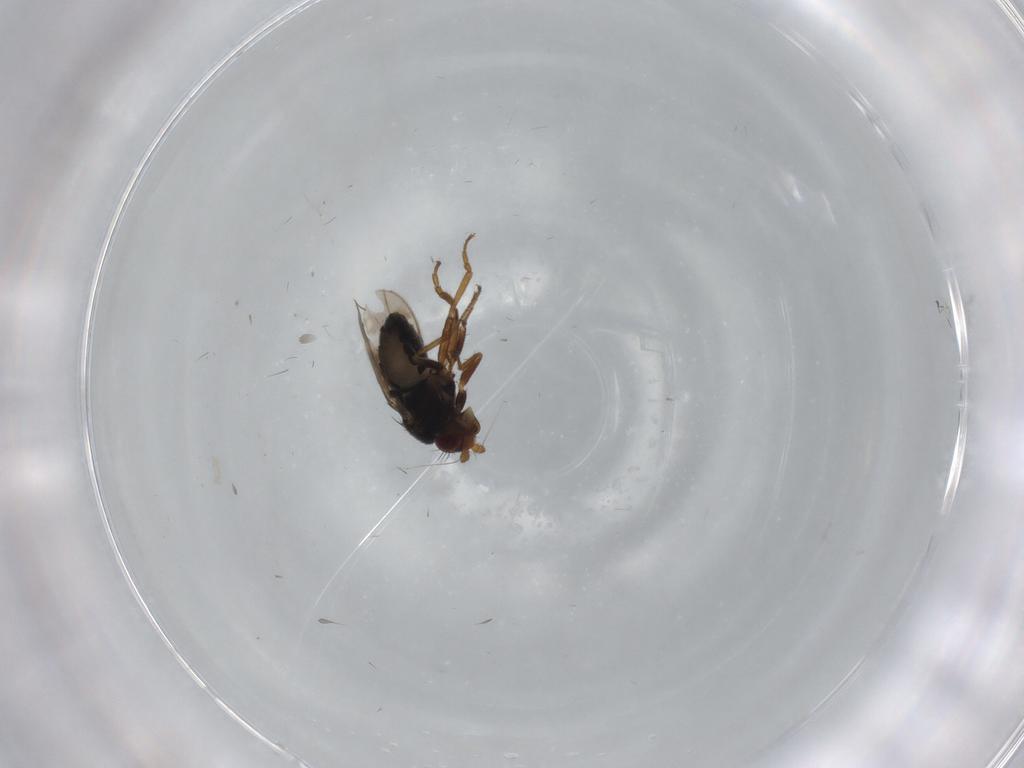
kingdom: Animalia
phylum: Arthropoda
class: Insecta
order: Diptera
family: Sphaeroceridae
